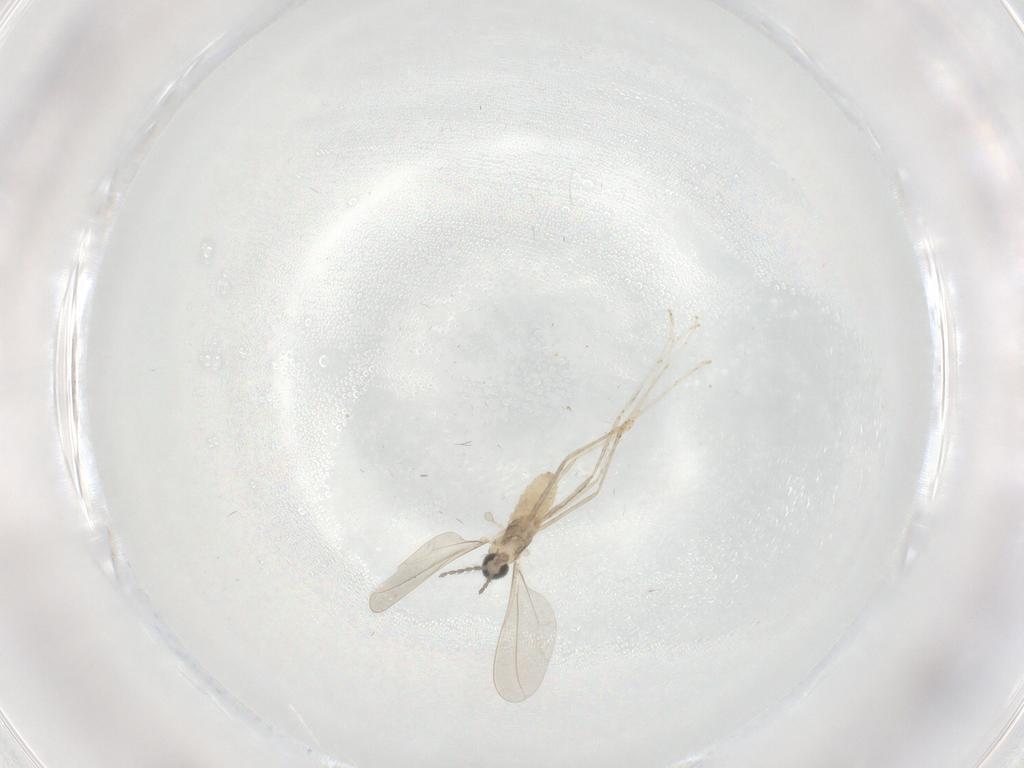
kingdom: Animalia
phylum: Arthropoda
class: Insecta
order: Diptera
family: Cecidomyiidae
